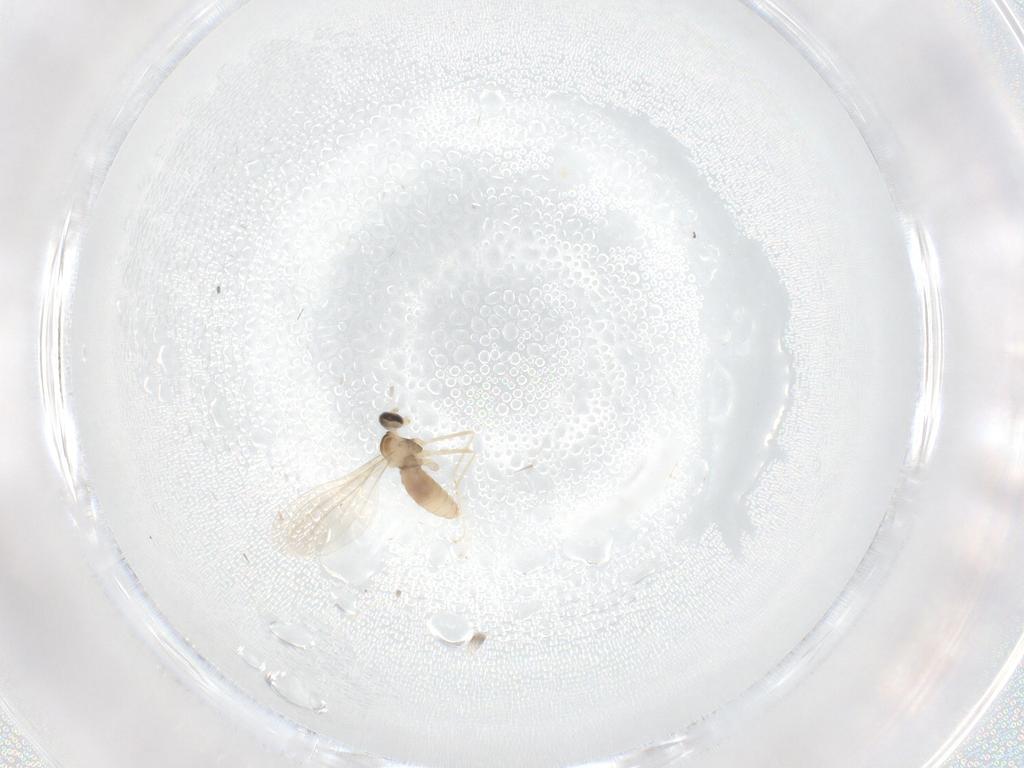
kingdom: Animalia
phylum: Arthropoda
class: Insecta
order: Diptera
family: Cecidomyiidae
